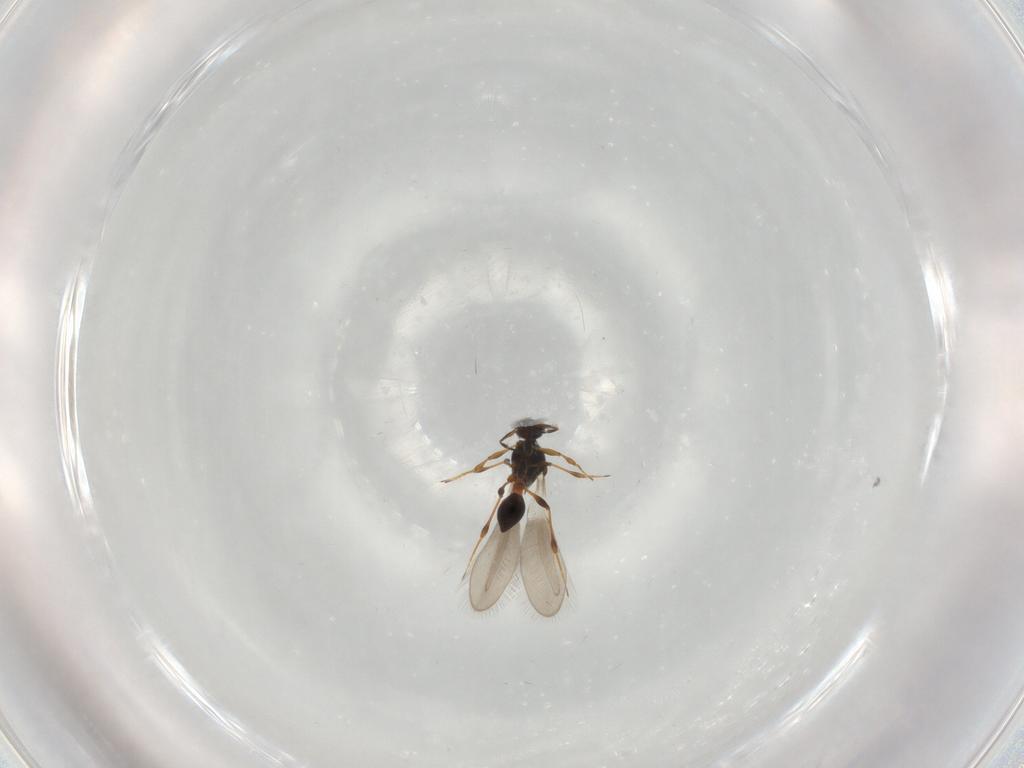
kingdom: Animalia
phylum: Arthropoda
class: Insecta
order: Hymenoptera
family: Platygastridae
